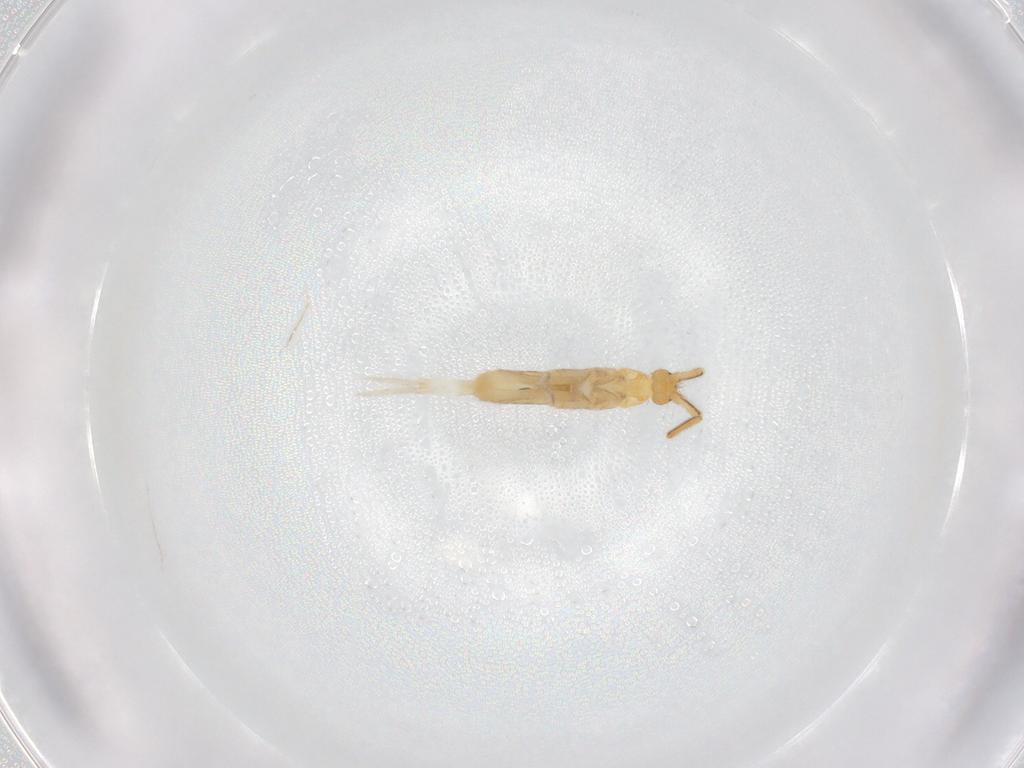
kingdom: Animalia
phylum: Arthropoda
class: Collembola
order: Entomobryomorpha
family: Entomobryidae
